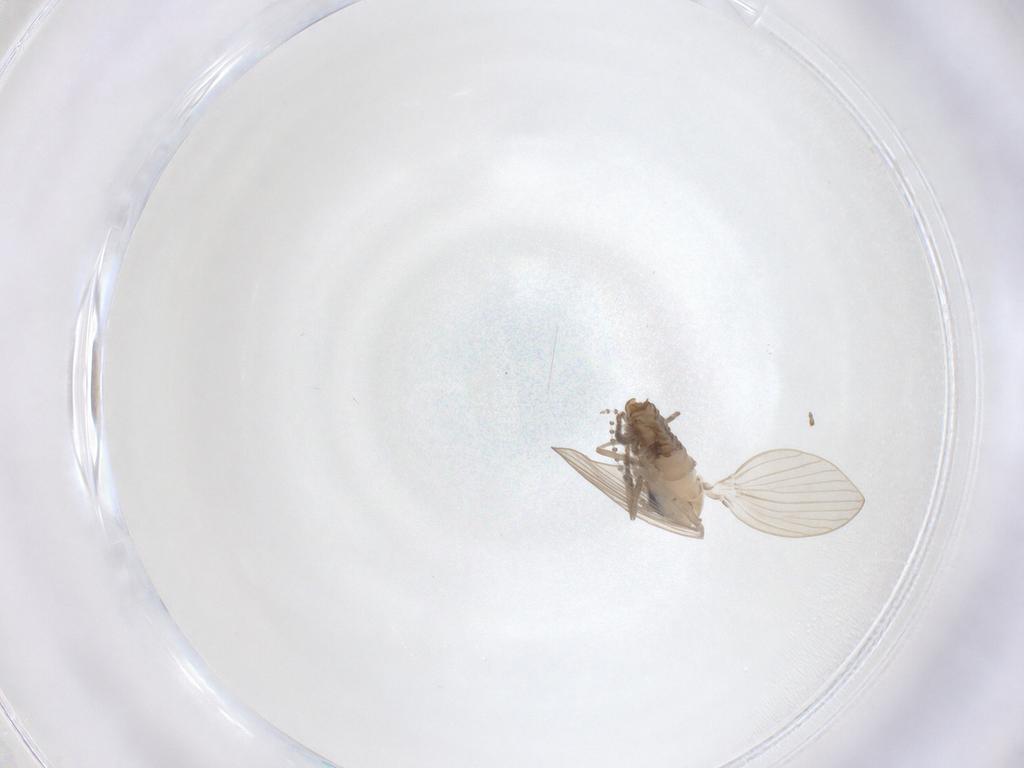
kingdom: Animalia
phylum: Arthropoda
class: Insecta
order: Diptera
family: Psychodidae
